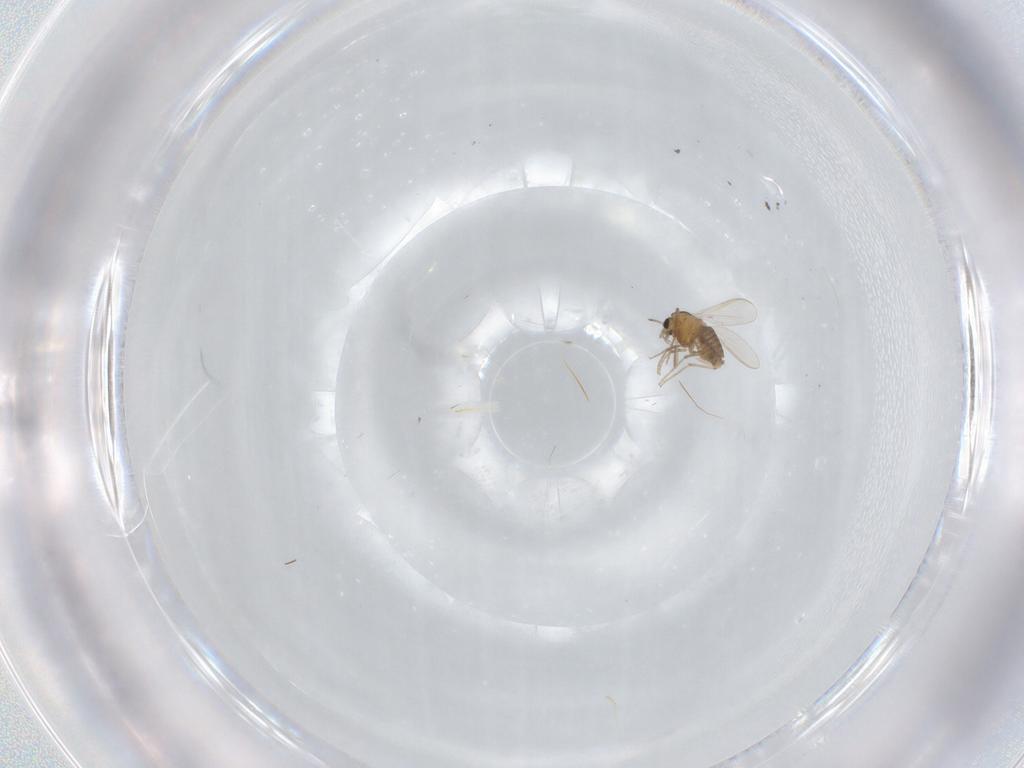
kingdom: Animalia
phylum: Arthropoda
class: Insecta
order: Diptera
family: Chironomidae
